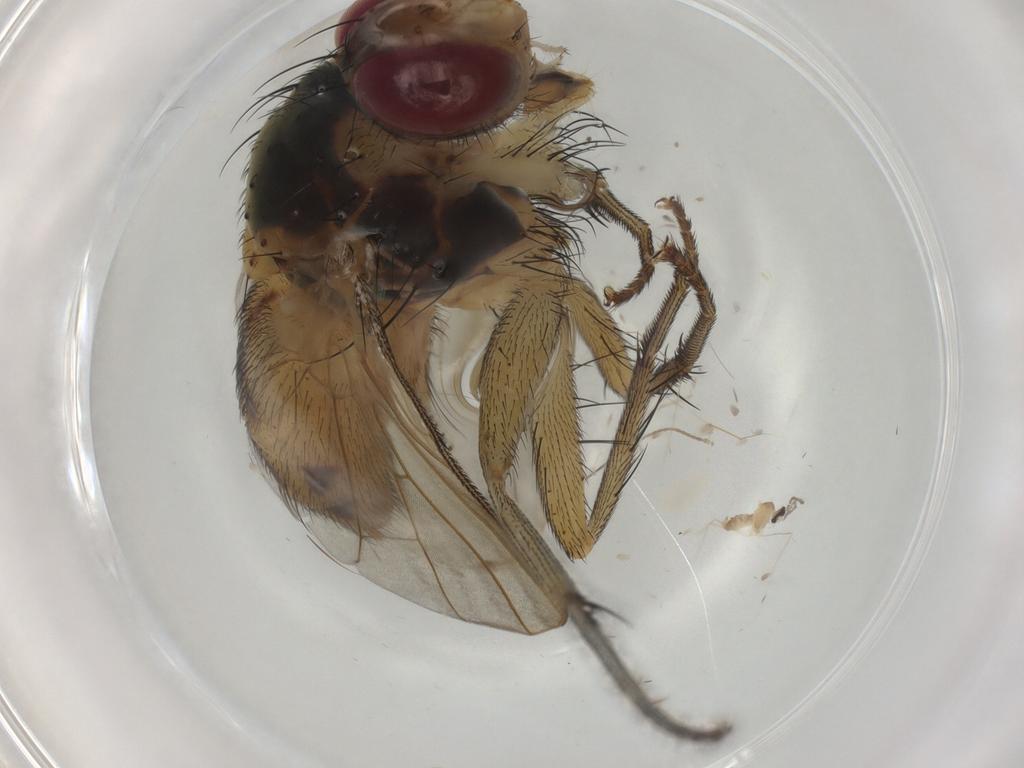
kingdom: Animalia
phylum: Arthropoda
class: Insecta
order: Diptera
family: Muscidae
